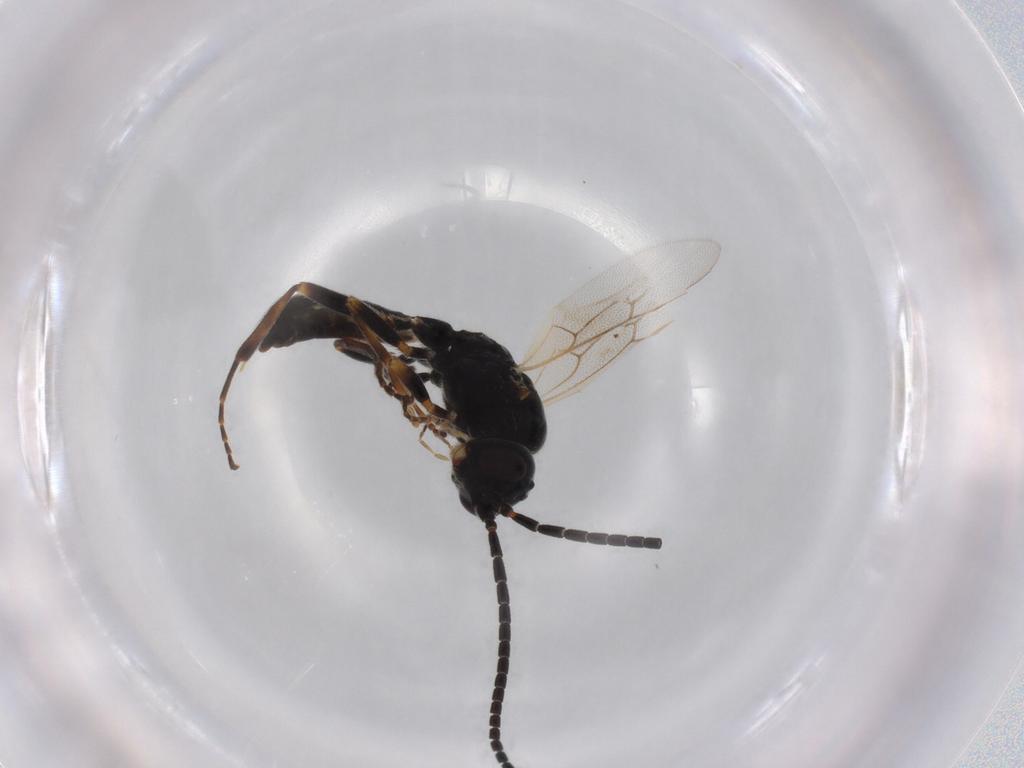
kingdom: Animalia
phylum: Arthropoda
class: Insecta
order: Hymenoptera
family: Ichneumonidae
